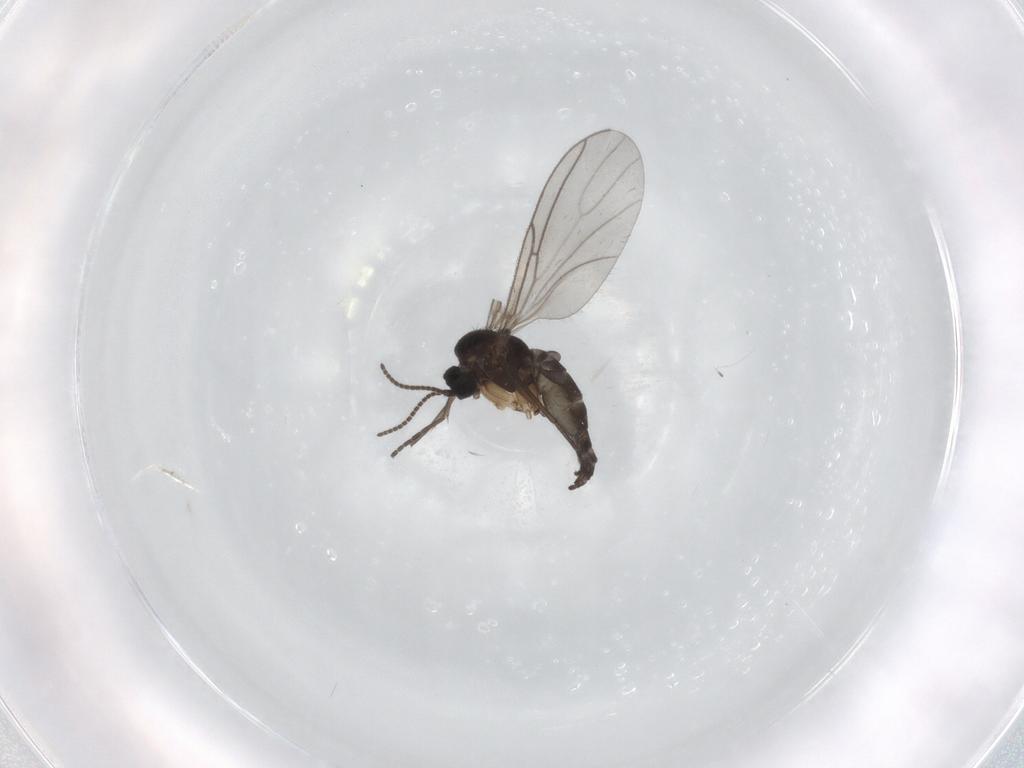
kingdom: Animalia
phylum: Arthropoda
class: Insecta
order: Diptera
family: Sciaridae
